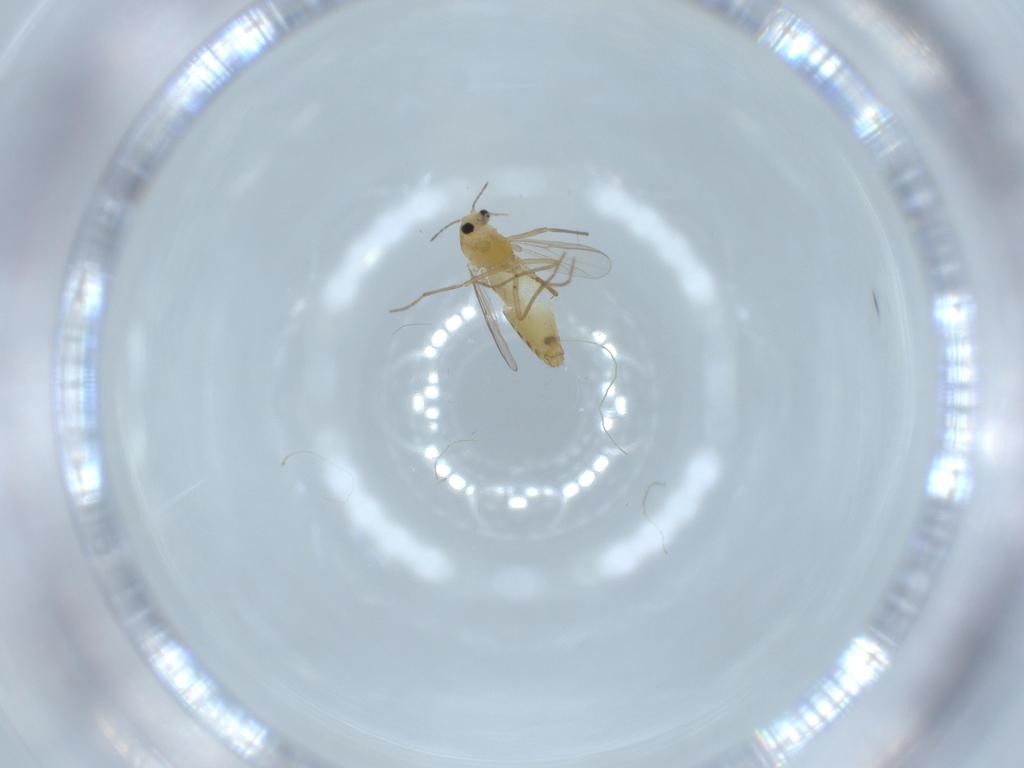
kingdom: Animalia
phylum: Arthropoda
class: Insecta
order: Diptera
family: Chironomidae
